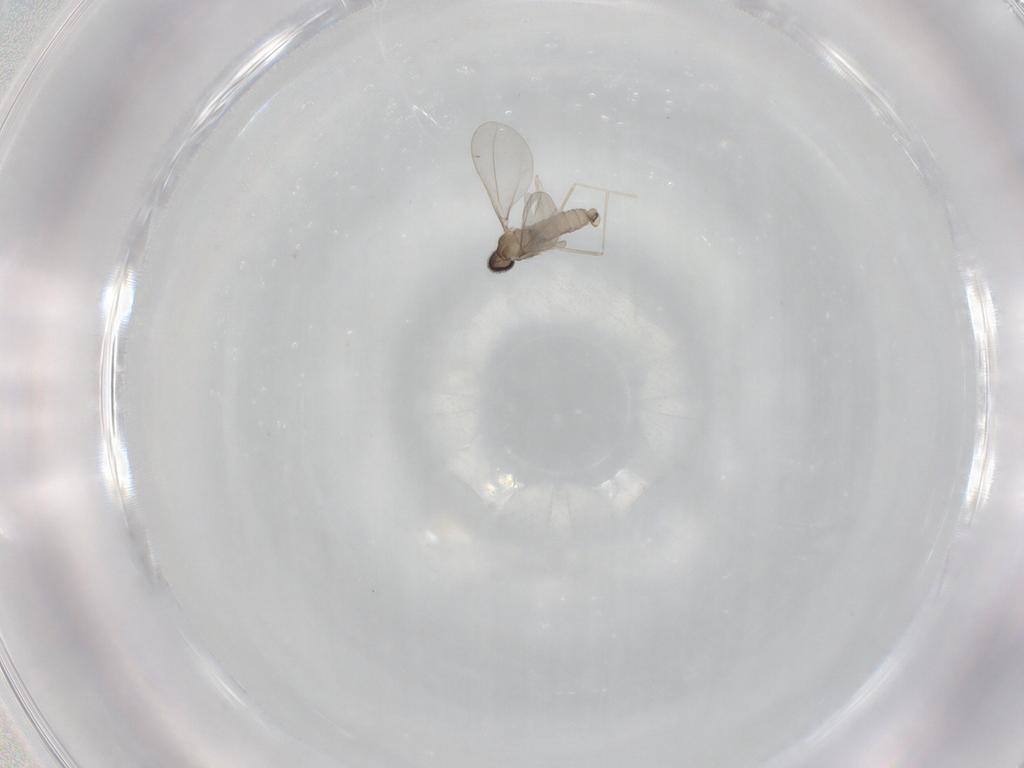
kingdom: Animalia
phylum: Arthropoda
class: Insecta
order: Diptera
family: Cecidomyiidae
